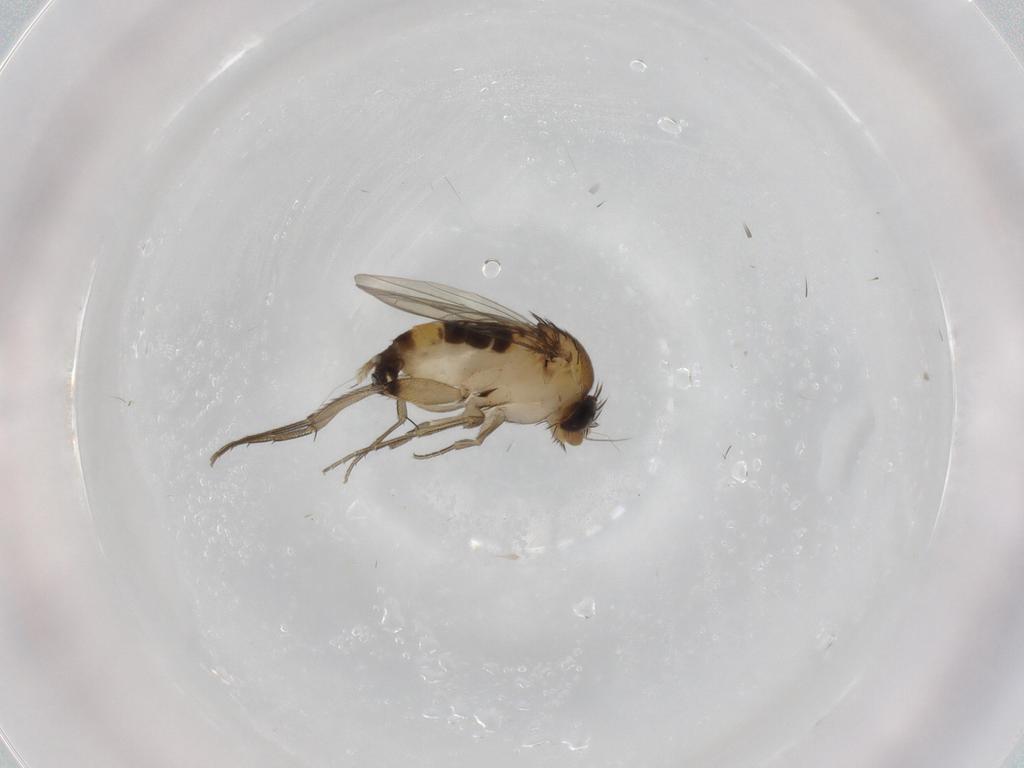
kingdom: Animalia
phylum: Arthropoda
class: Insecta
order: Diptera
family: Phoridae
